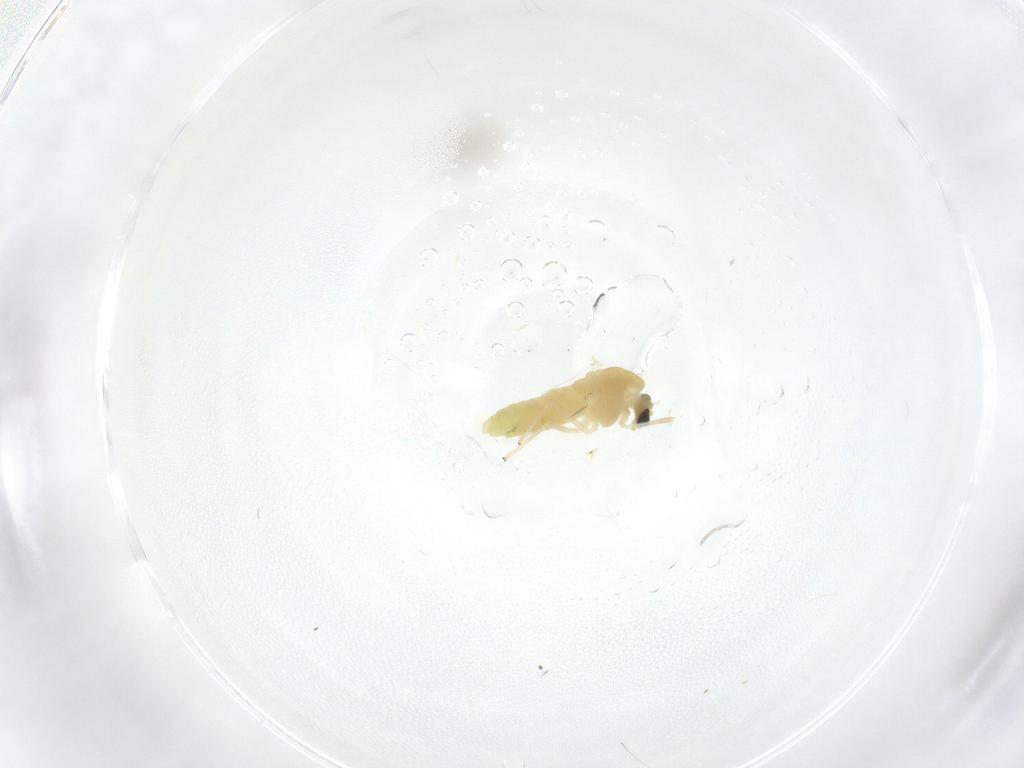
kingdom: Animalia
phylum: Arthropoda
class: Insecta
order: Diptera
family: Chironomidae
